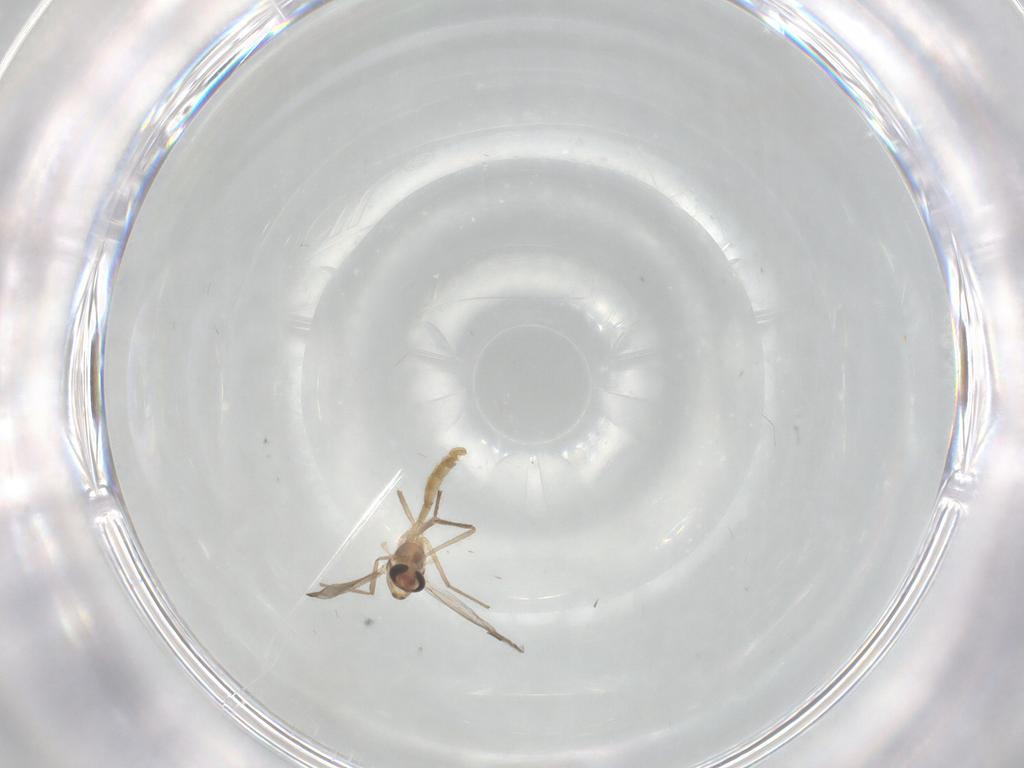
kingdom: Animalia
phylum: Arthropoda
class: Insecta
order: Diptera
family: Cecidomyiidae
